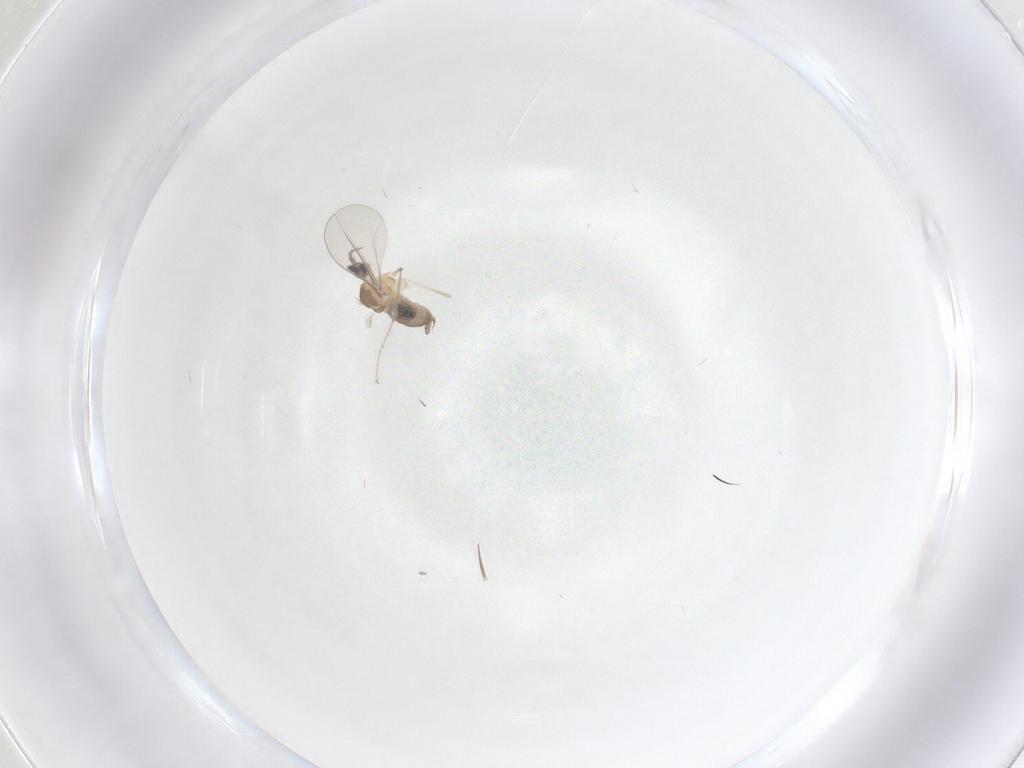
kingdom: Animalia
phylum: Arthropoda
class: Insecta
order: Diptera
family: Cecidomyiidae
